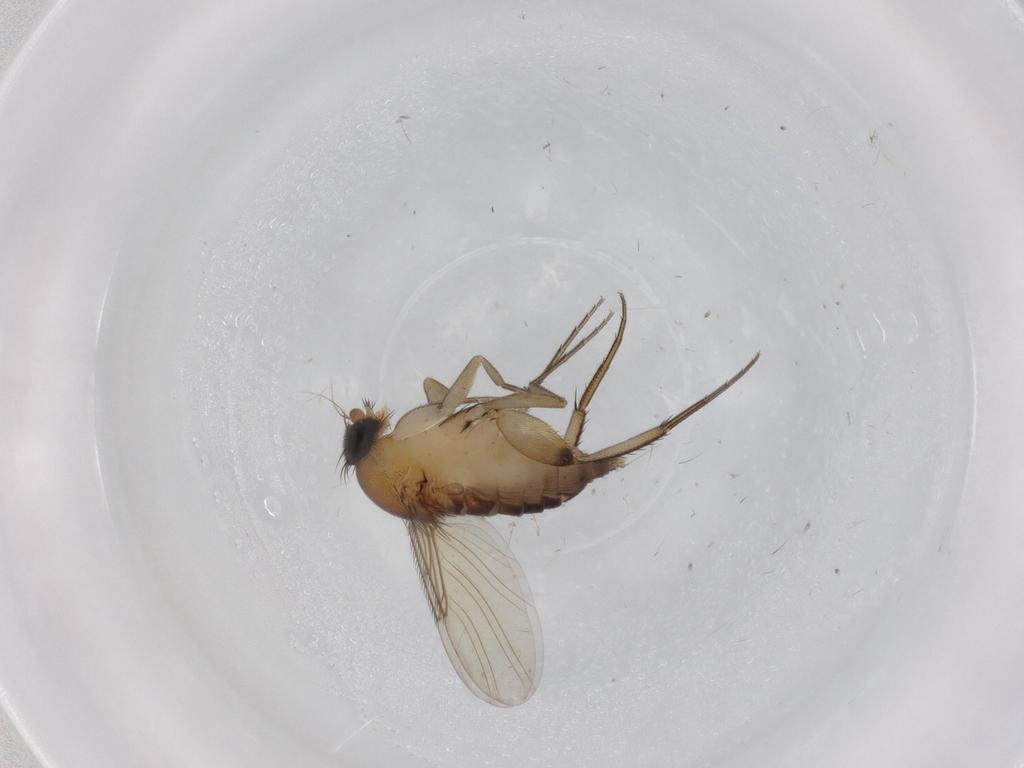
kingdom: Animalia
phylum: Arthropoda
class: Insecta
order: Diptera
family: Phoridae
